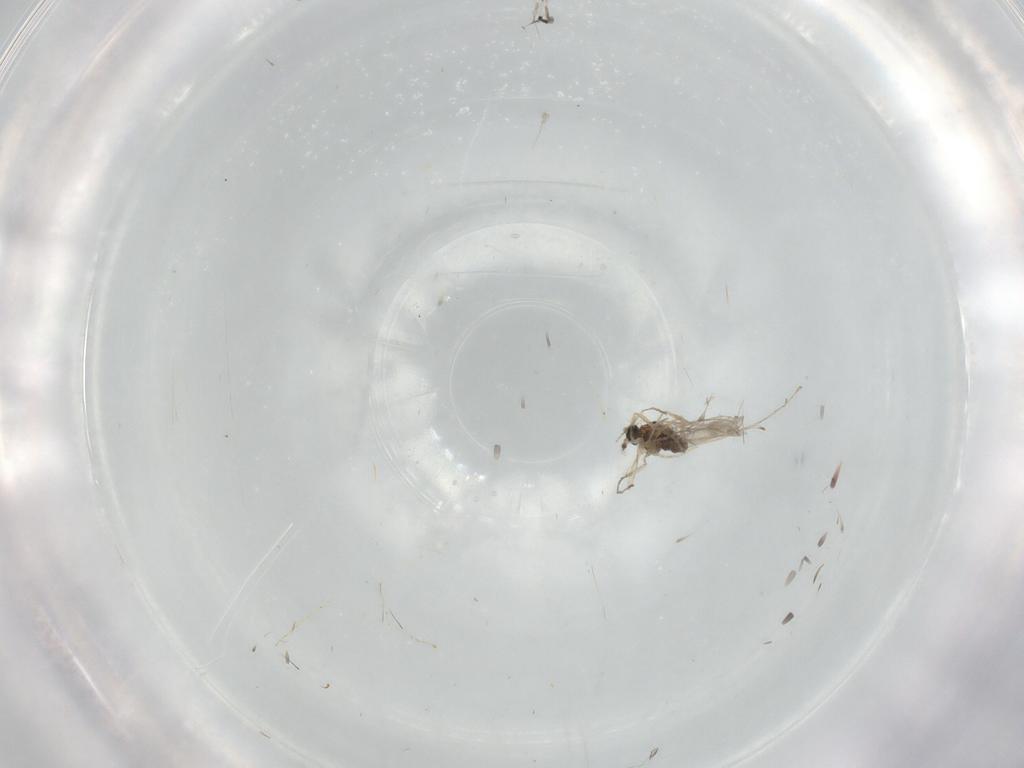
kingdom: Animalia
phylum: Arthropoda
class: Insecta
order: Diptera
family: Cecidomyiidae
